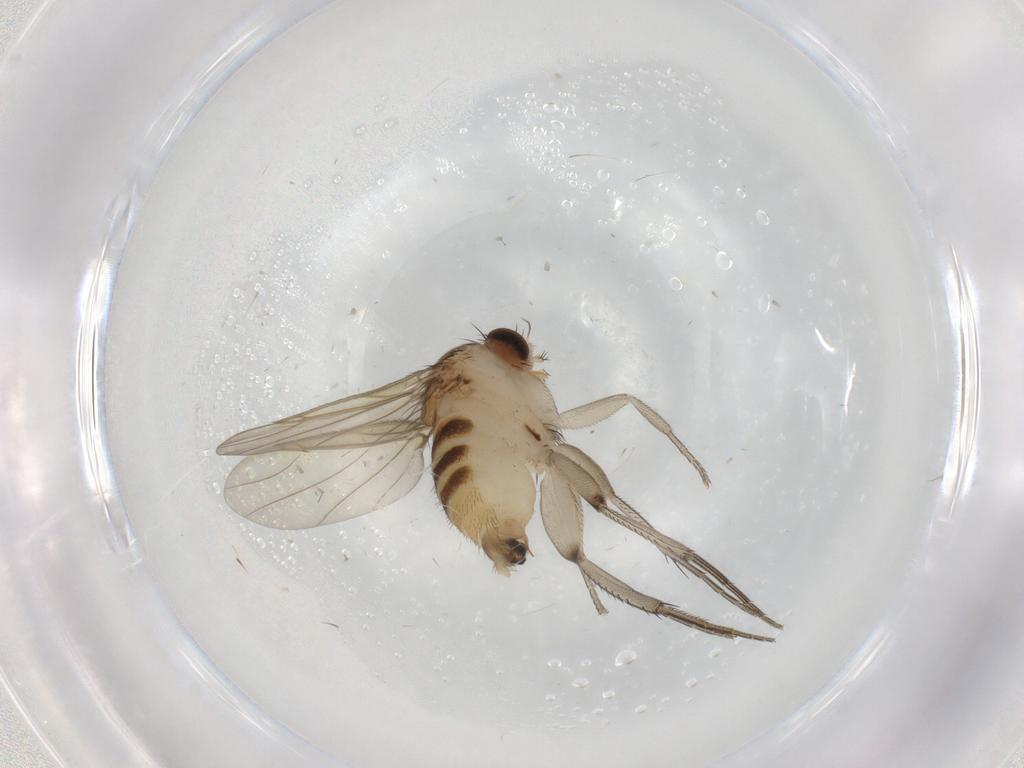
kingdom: Animalia
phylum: Arthropoda
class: Insecta
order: Diptera
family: Phoridae
